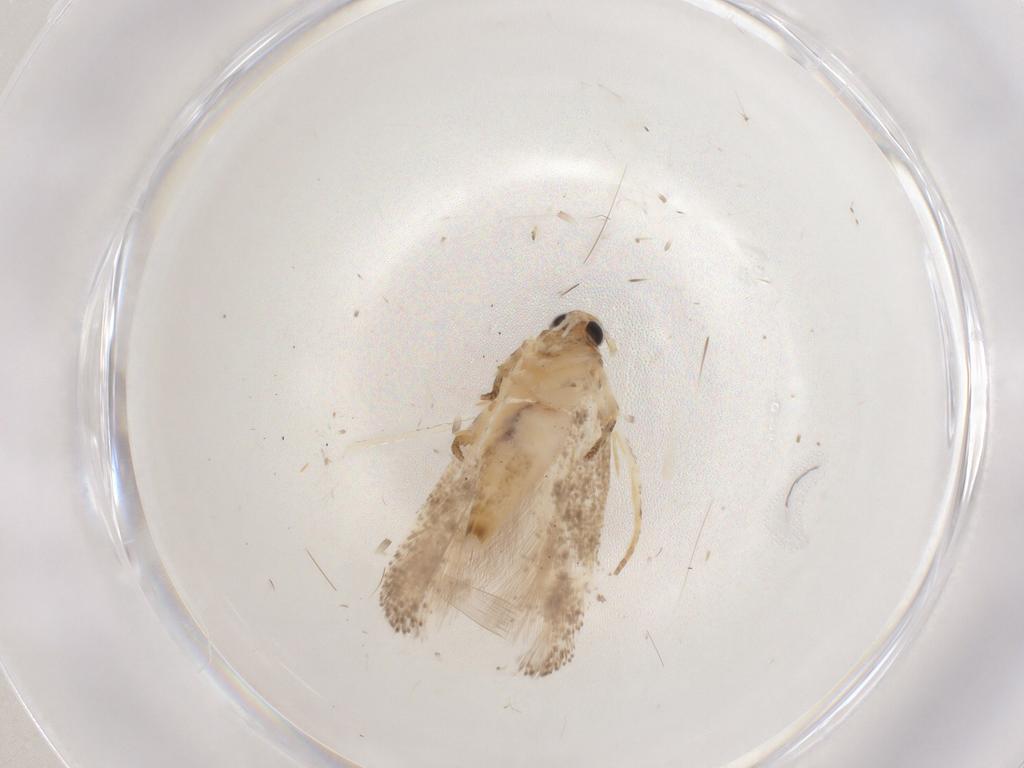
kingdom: Animalia
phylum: Arthropoda
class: Insecta
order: Lepidoptera
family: Gelechiidae
